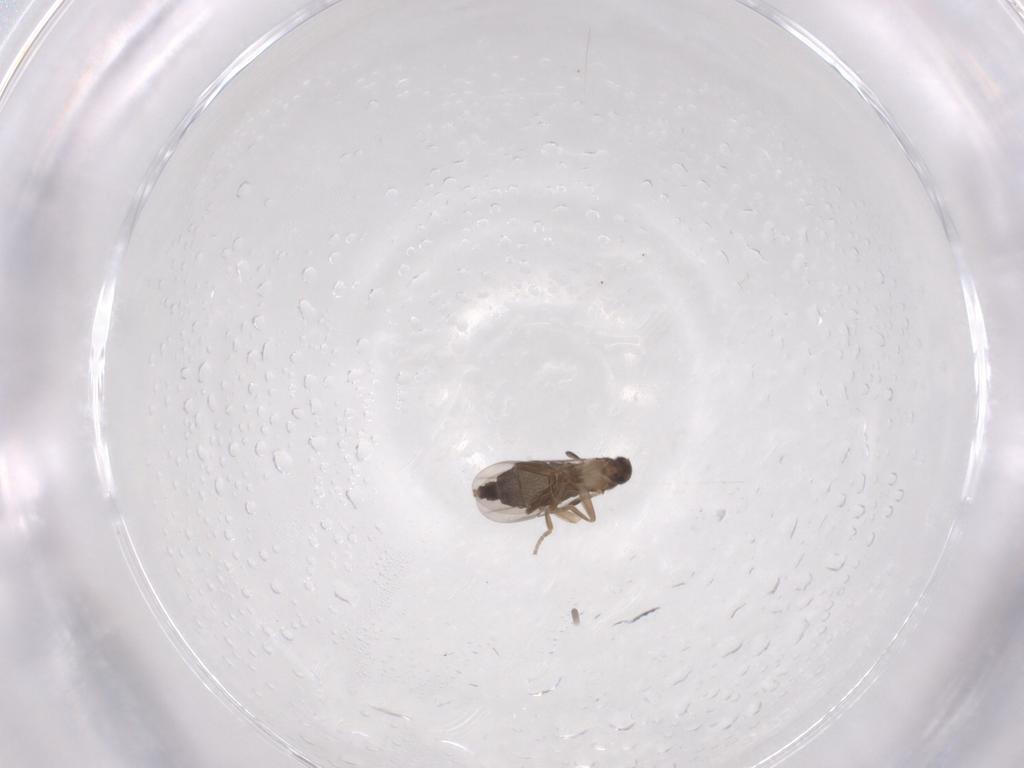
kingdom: Animalia
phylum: Arthropoda
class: Insecta
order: Diptera
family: Phoridae
